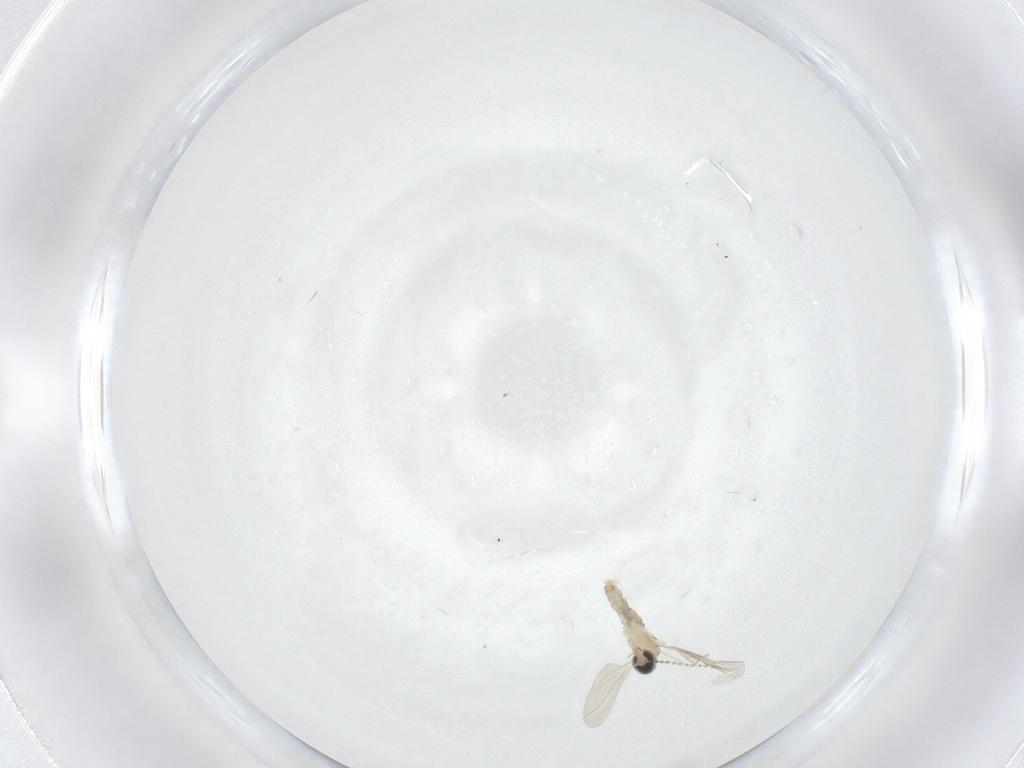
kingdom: Animalia
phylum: Arthropoda
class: Insecta
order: Diptera
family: Cecidomyiidae
